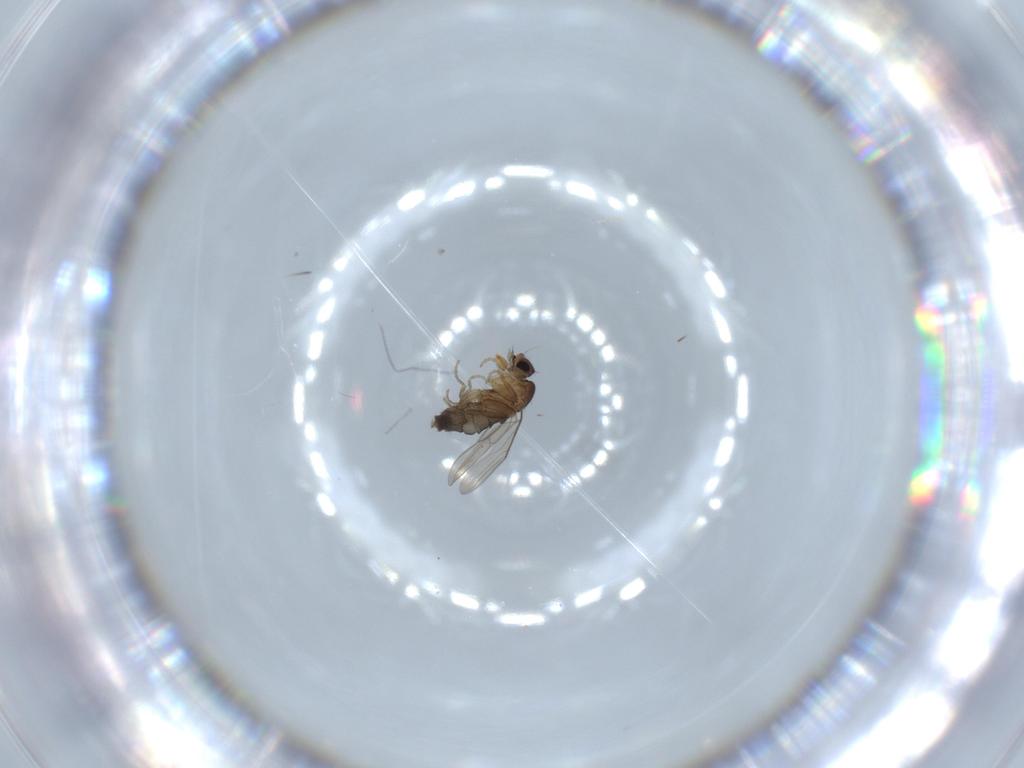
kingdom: Animalia
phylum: Arthropoda
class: Insecta
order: Diptera
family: Phoridae
